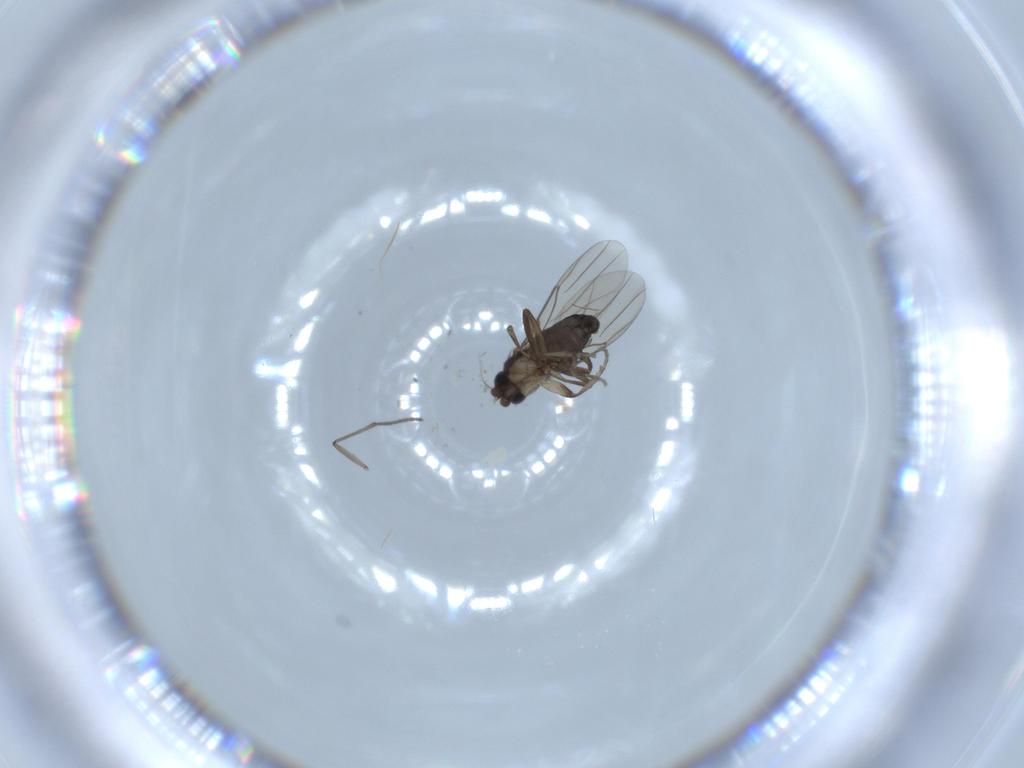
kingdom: Animalia
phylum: Arthropoda
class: Insecta
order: Diptera
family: Phoridae
